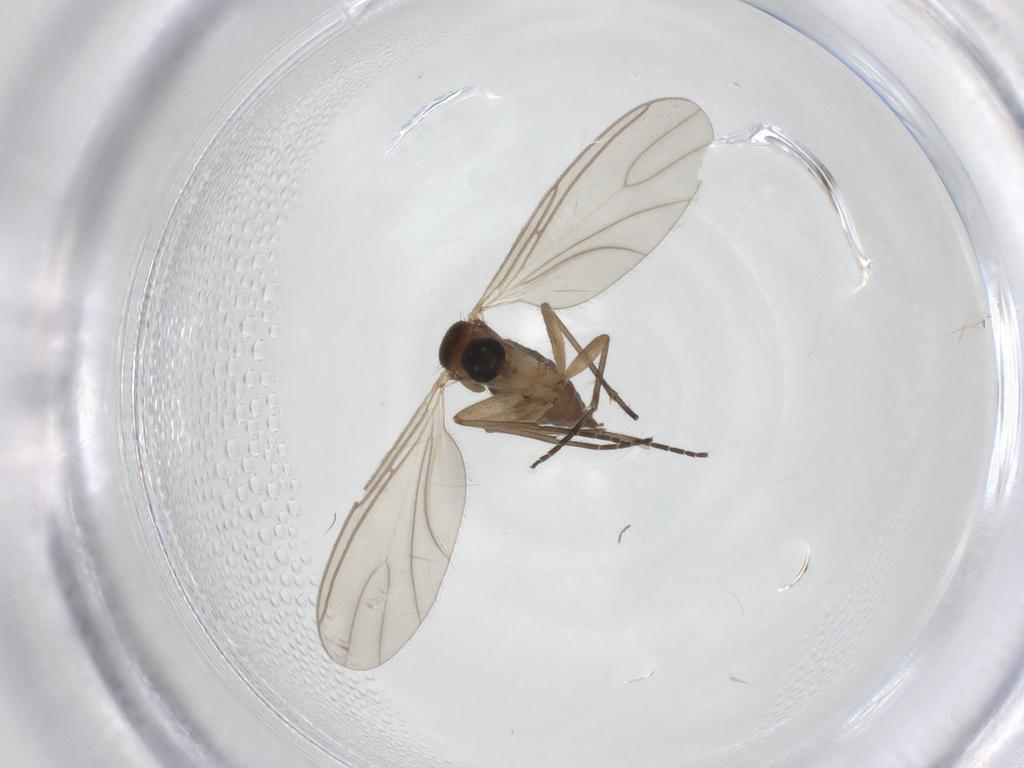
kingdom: Animalia
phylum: Arthropoda
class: Insecta
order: Diptera
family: Sciaridae
